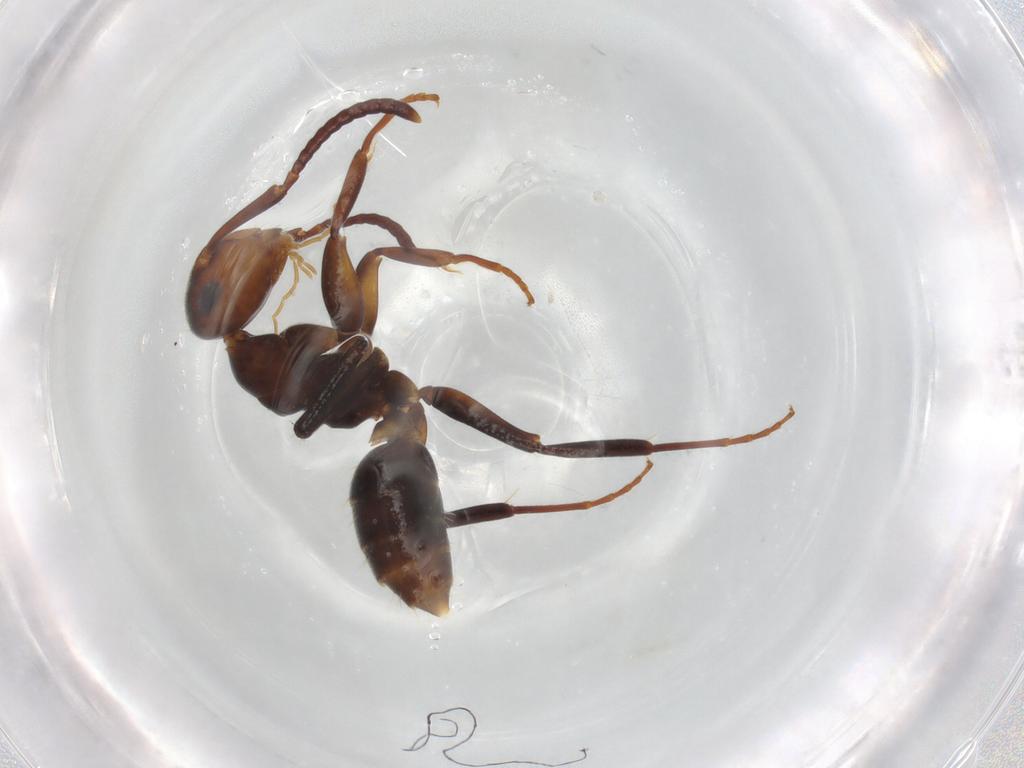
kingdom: Animalia
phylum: Arthropoda
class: Insecta
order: Hymenoptera
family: Formicidae
